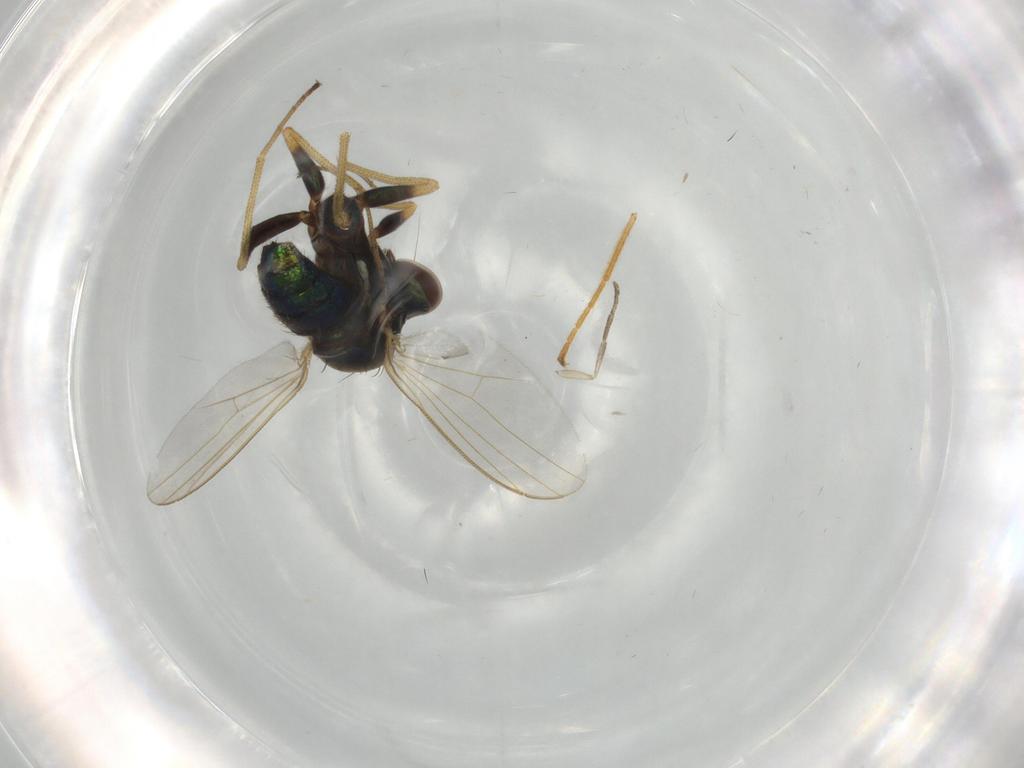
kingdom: Animalia
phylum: Arthropoda
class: Insecta
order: Diptera
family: Dolichopodidae
